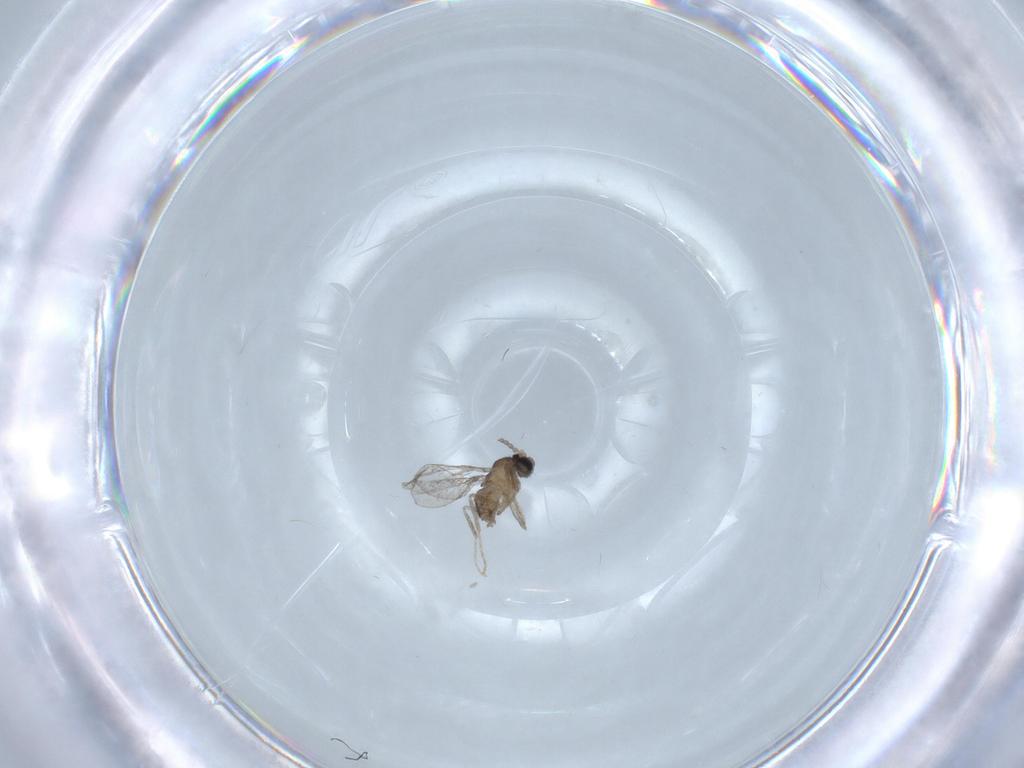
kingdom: Animalia
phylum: Arthropoda
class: Insecta
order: Diptera
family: Cecidomyiidae
